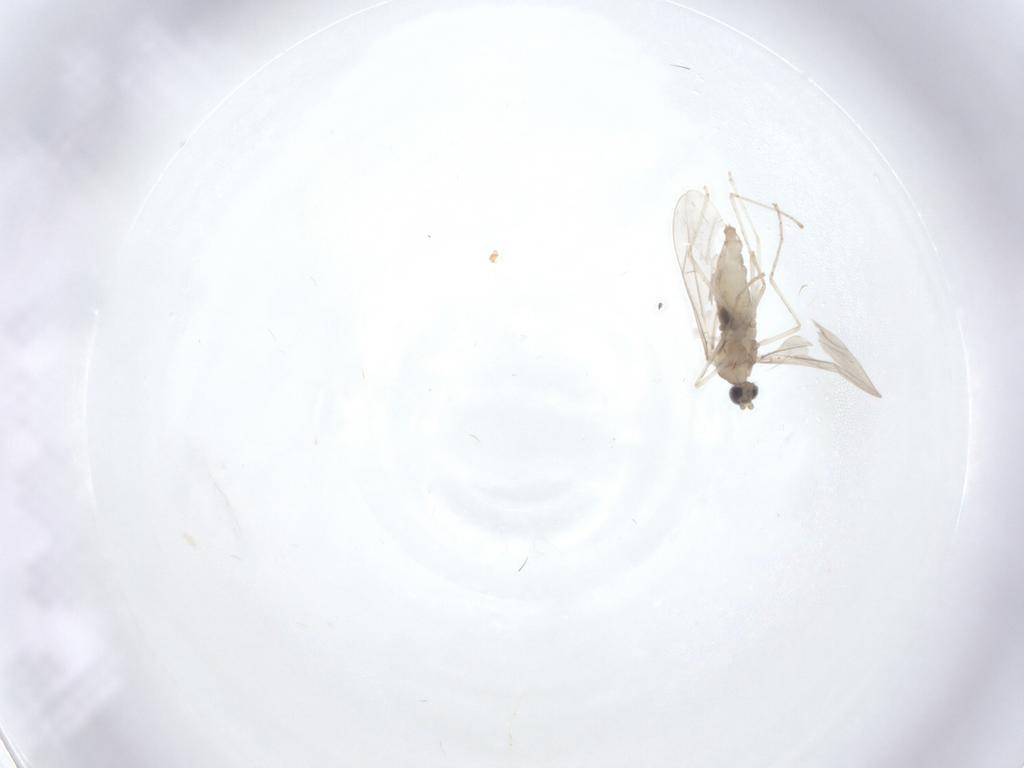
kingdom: Animalia
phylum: Arthropoda
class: Insecta
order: Diptera
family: Cecidomyiidae
